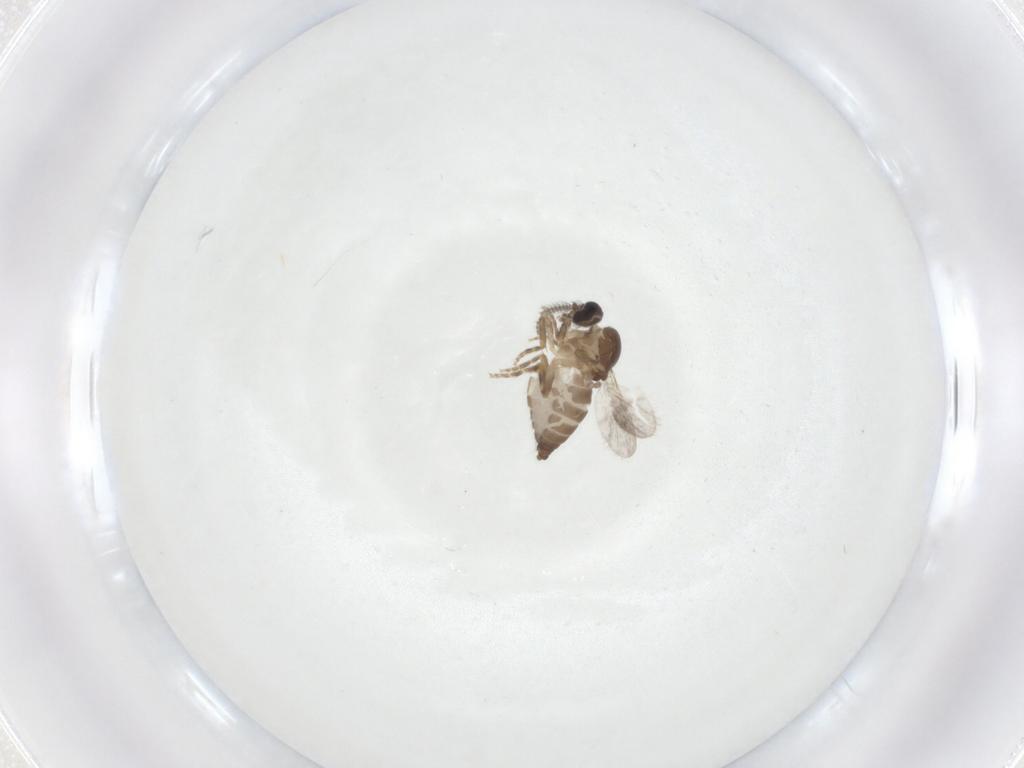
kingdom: Animalia
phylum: Arthropoda
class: Insecta
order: Diptera
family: Ceratopogonidae
